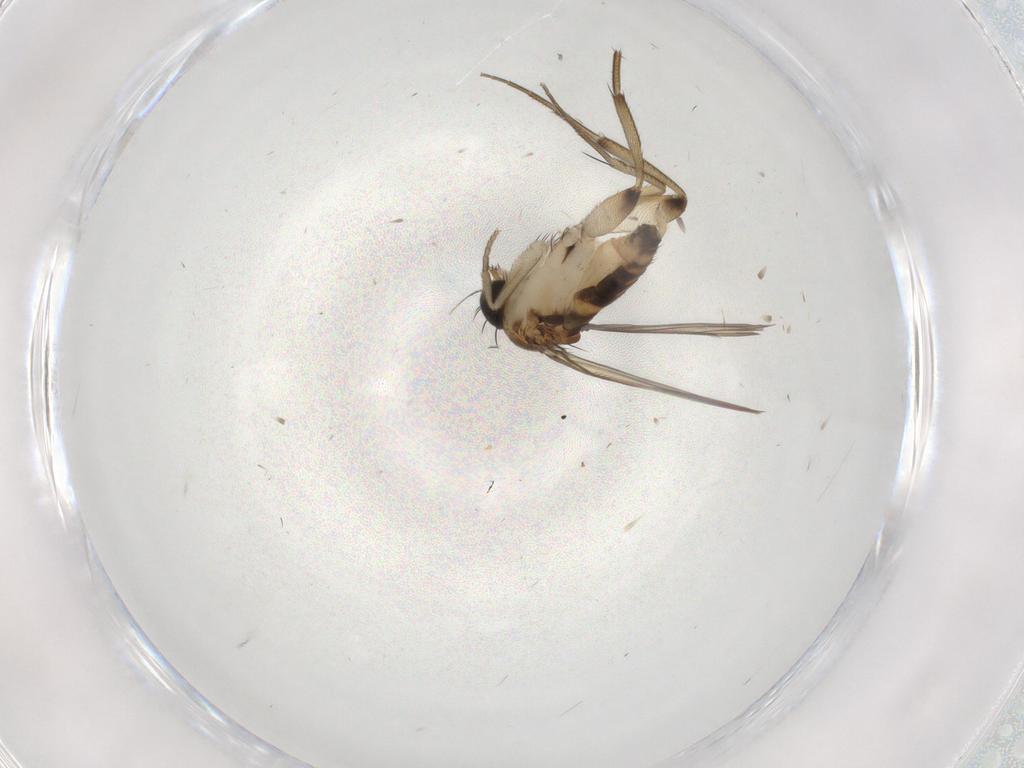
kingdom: Animalia
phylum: Arthropoda
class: Insecta
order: Diptera
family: Phoridae
